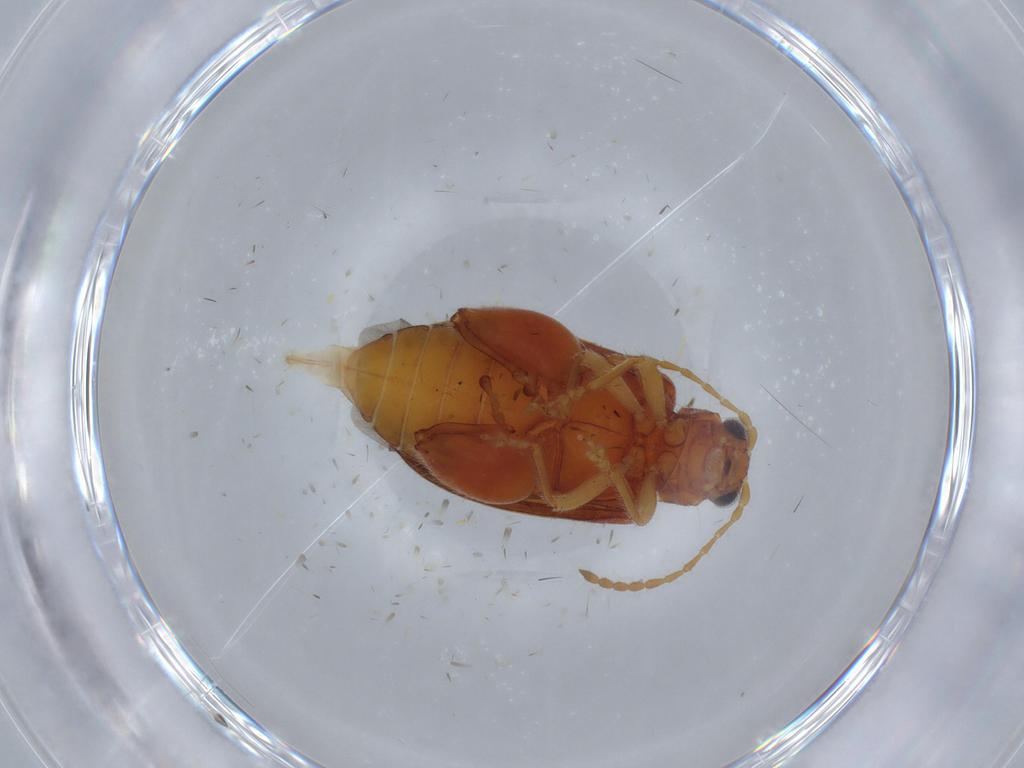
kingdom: Animalia
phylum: Arthropoda
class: Insecta
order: Coleoptera
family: Chrysomelidae
